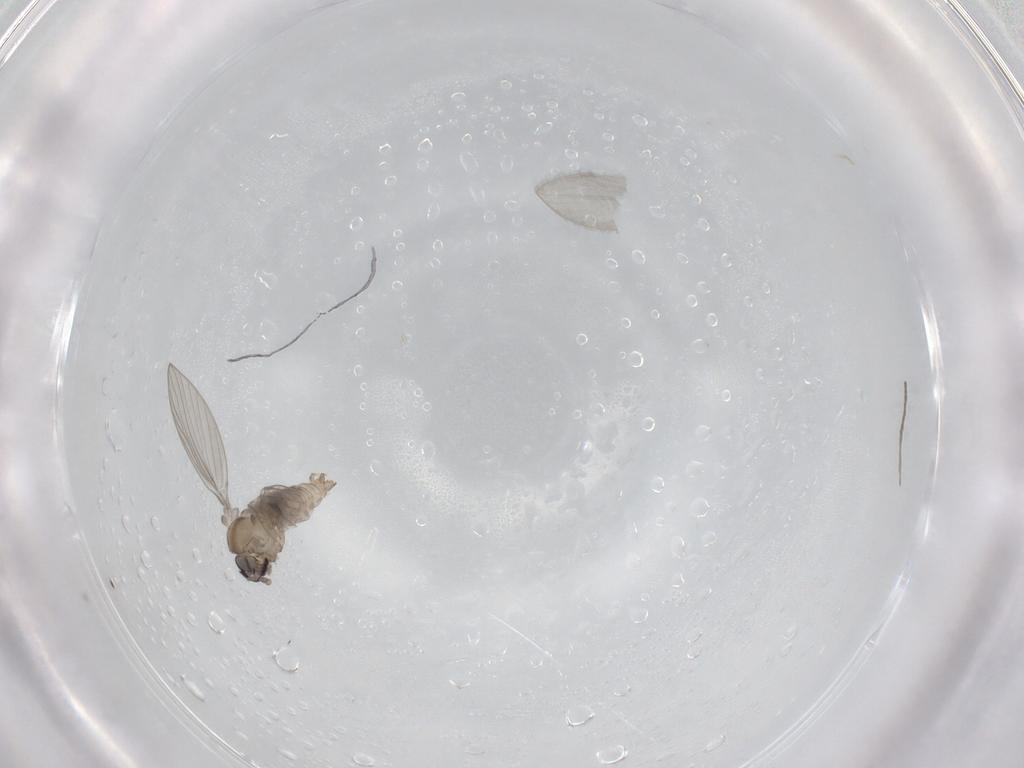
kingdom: Animalia
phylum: Arthropoda
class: Insecta
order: Diptera
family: Psychodidae
